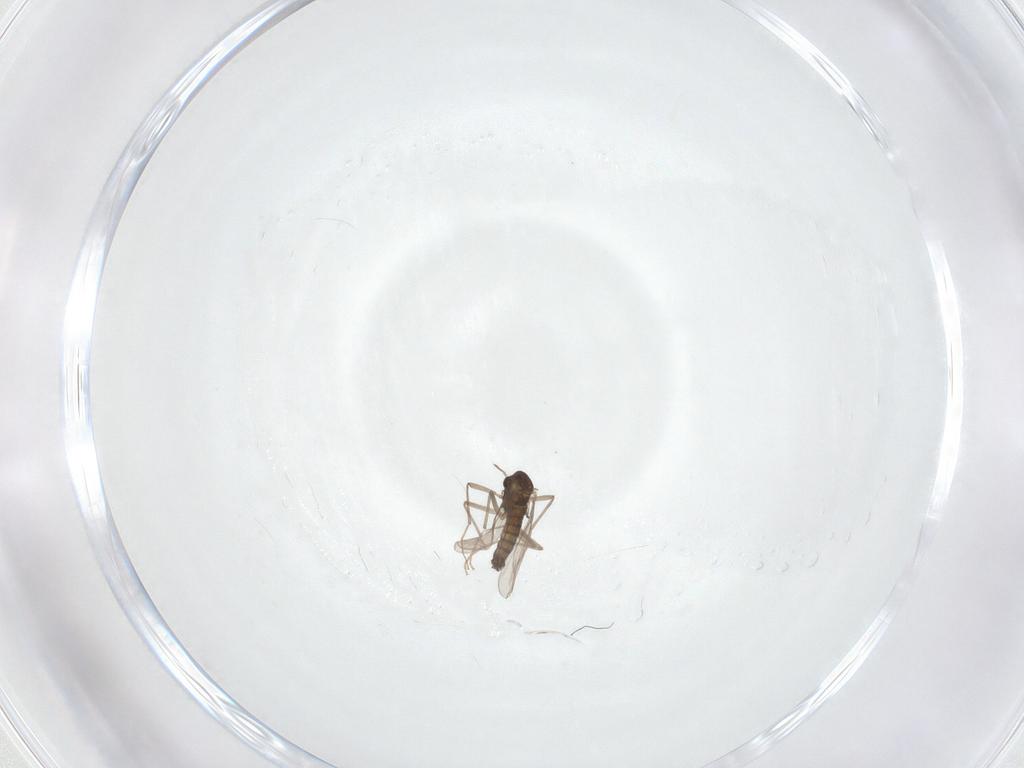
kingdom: Animalia
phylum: Arthropoda
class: Insecta
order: Diptera
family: Chironomidae
